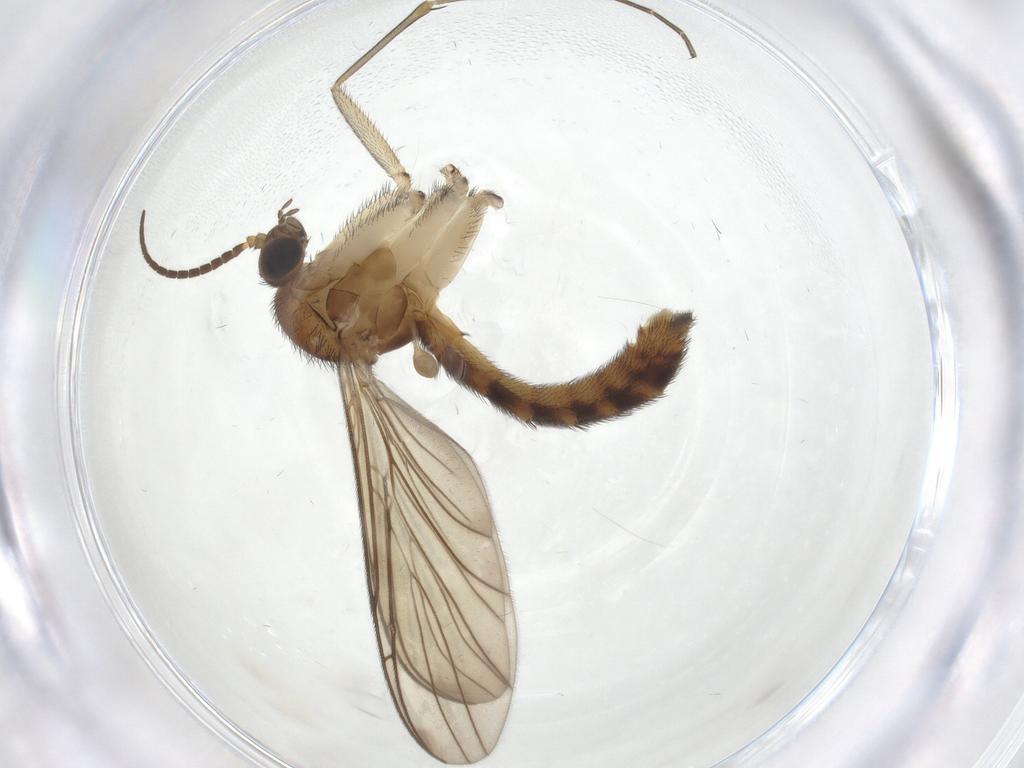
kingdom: Animalia
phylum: Arthropoda
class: Insecta
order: Diptera
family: Keroplatidae
